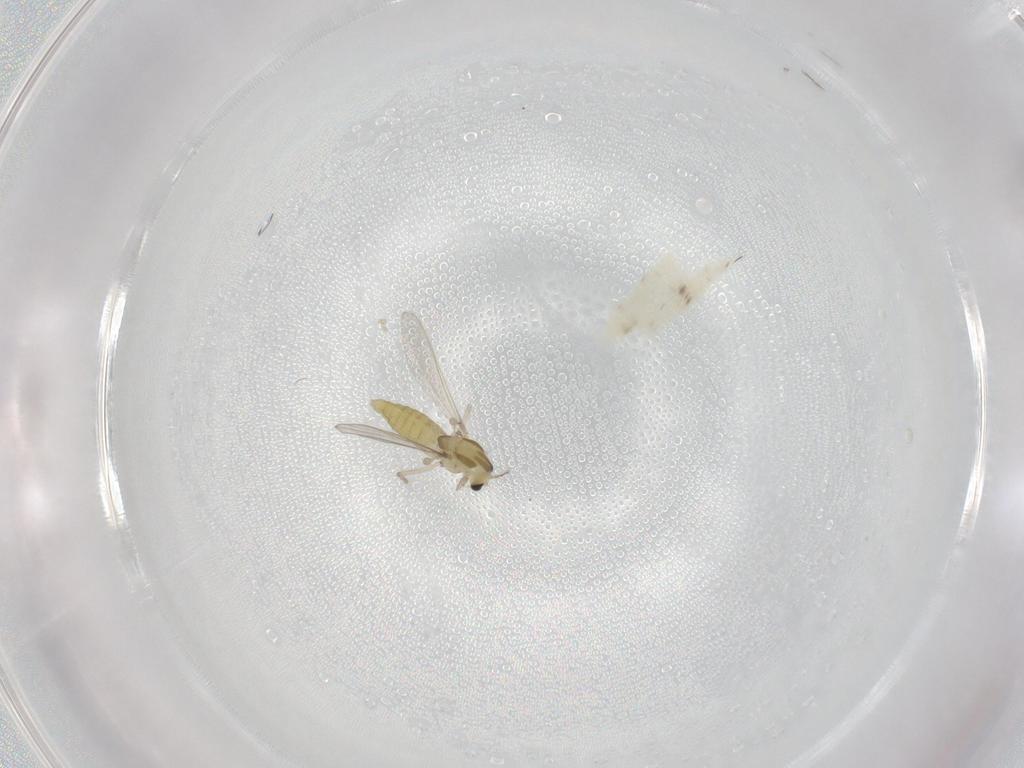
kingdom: Animalia
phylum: Arthropoda
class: Insecta
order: Diptera
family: Chironomidae
